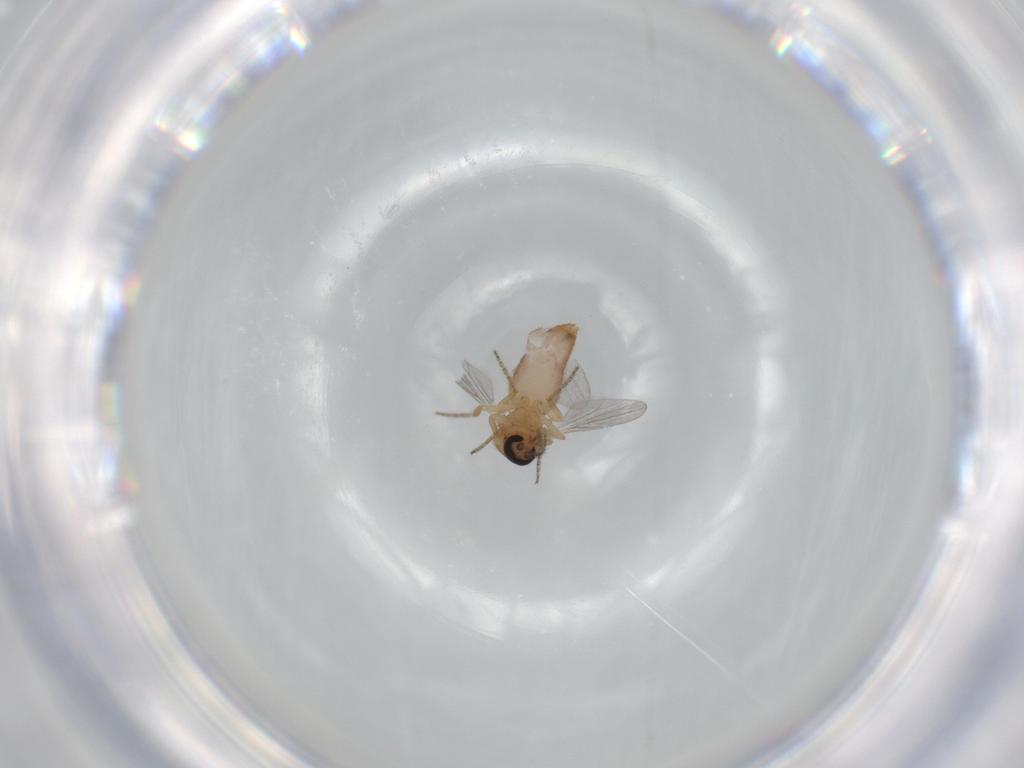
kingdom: Animalia
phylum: Arthropoda
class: Insecta
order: Diptera
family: Ceratopogonidae
